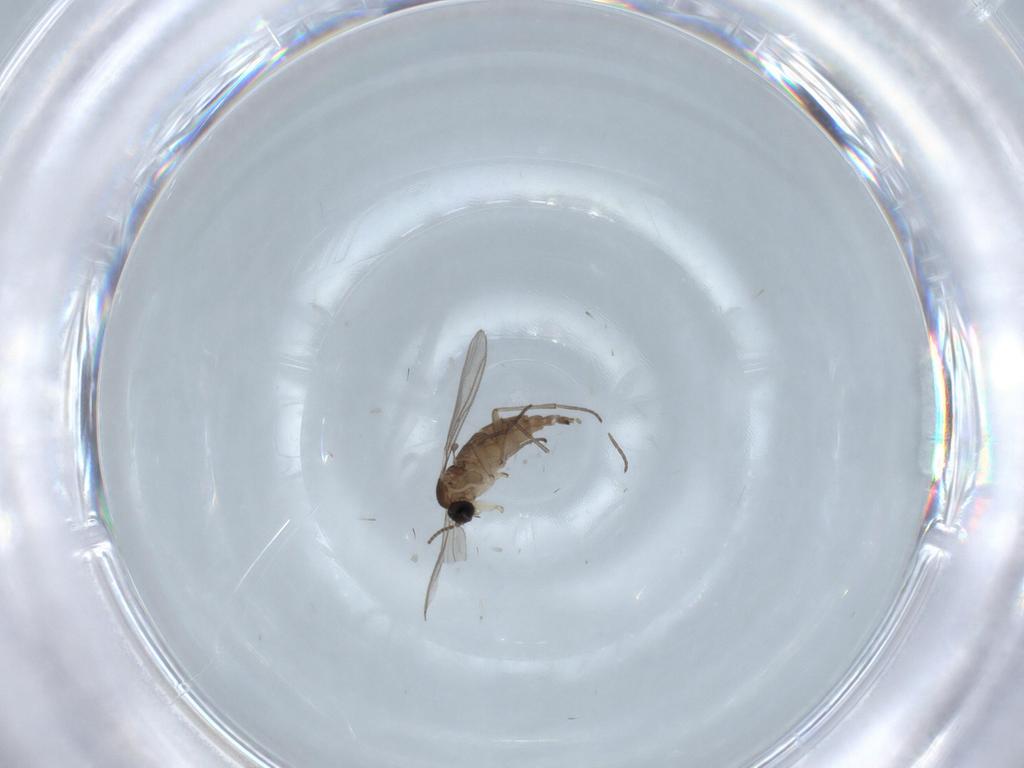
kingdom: Animalia
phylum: Arthropoda
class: Insecta
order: Diptera
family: Sciaridae
